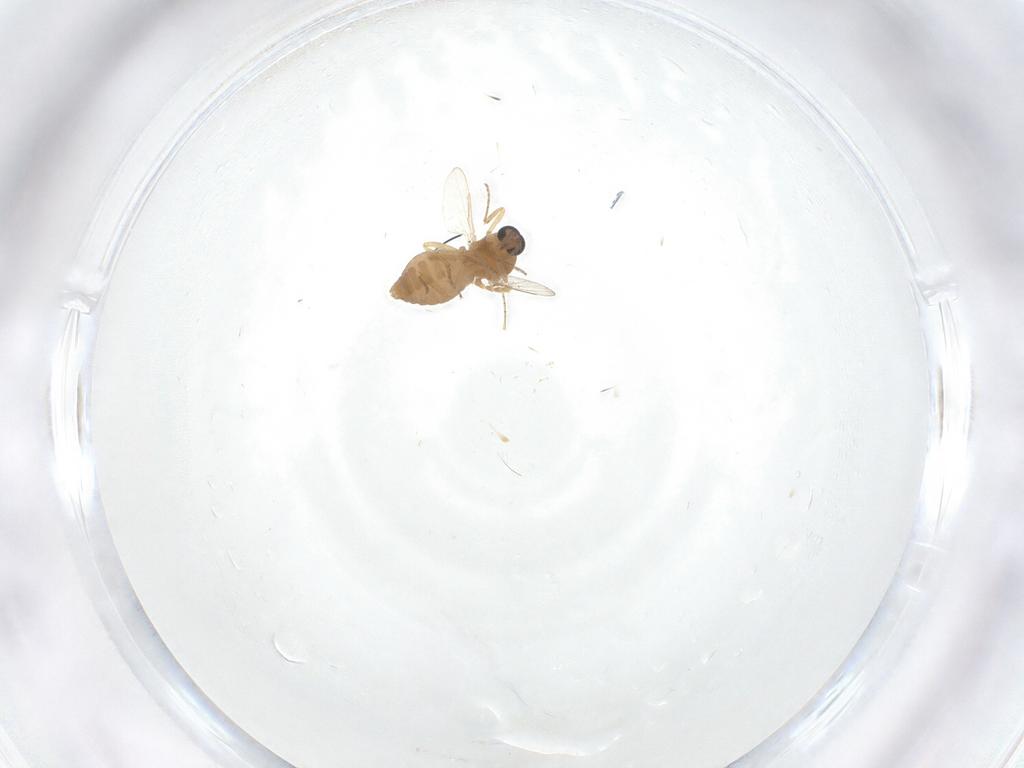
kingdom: Animalia
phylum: Arthropoda
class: Insecta
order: Diptera
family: Ceratopogonidae
